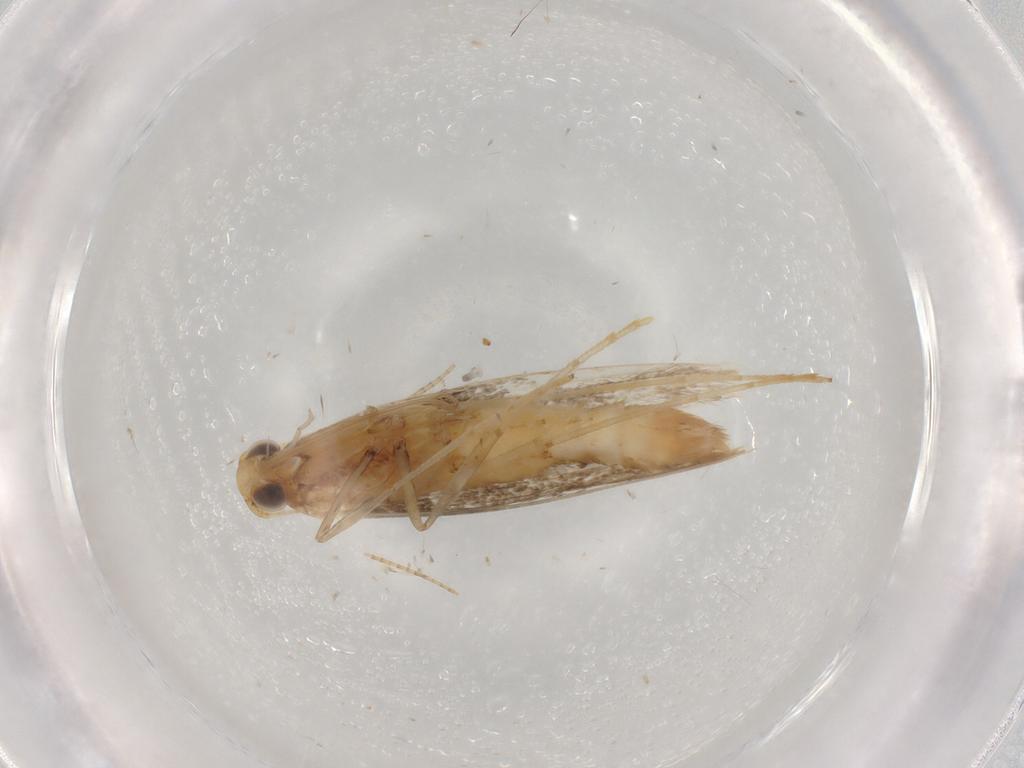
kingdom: Animalia
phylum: Arthropoda
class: Insecta
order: Lepidoptera
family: Gracillariidae
